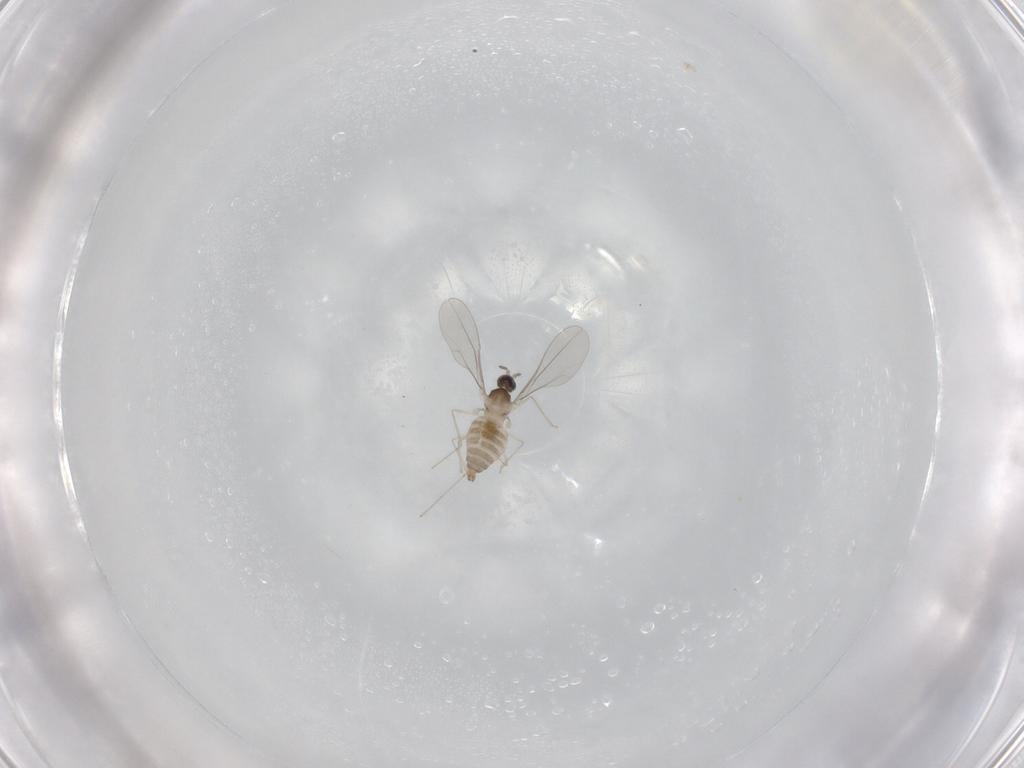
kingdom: Animalia
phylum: Arthropoda
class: Insecta
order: Diptera
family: Cecidomyiidae
